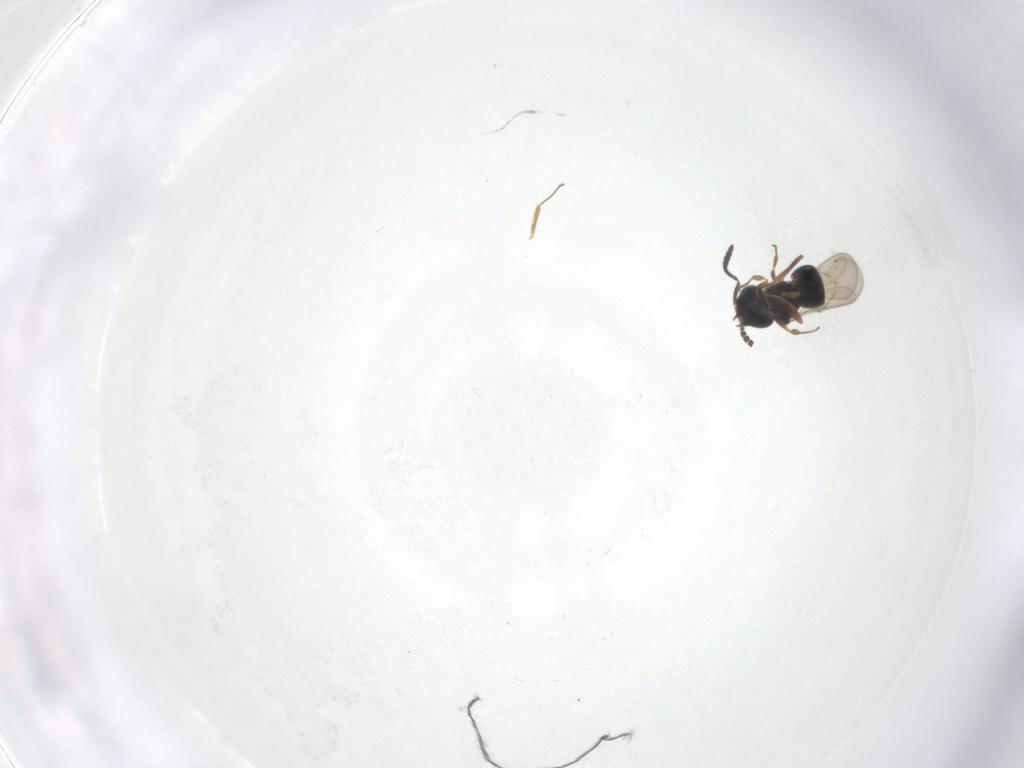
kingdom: Animalia
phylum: Arthropoda
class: Insecta
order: Hymenoptera
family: Scelionidae
